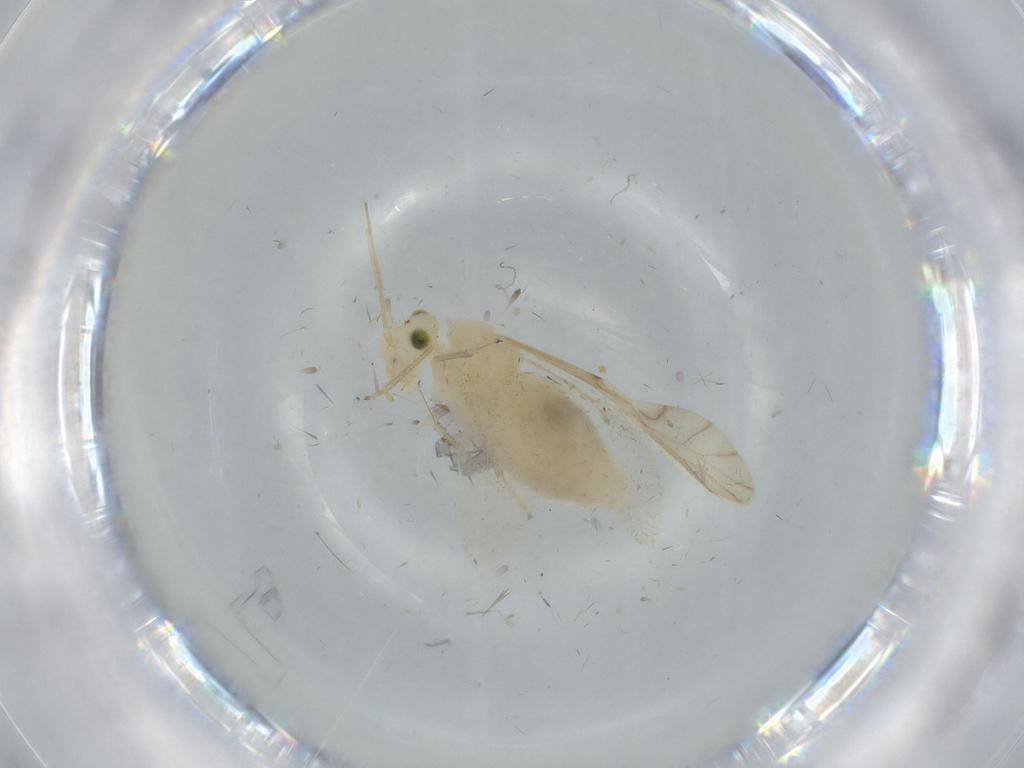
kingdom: Animalia
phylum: Arthropoda
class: Insecta
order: Psocodea
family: Caeciliusidae
